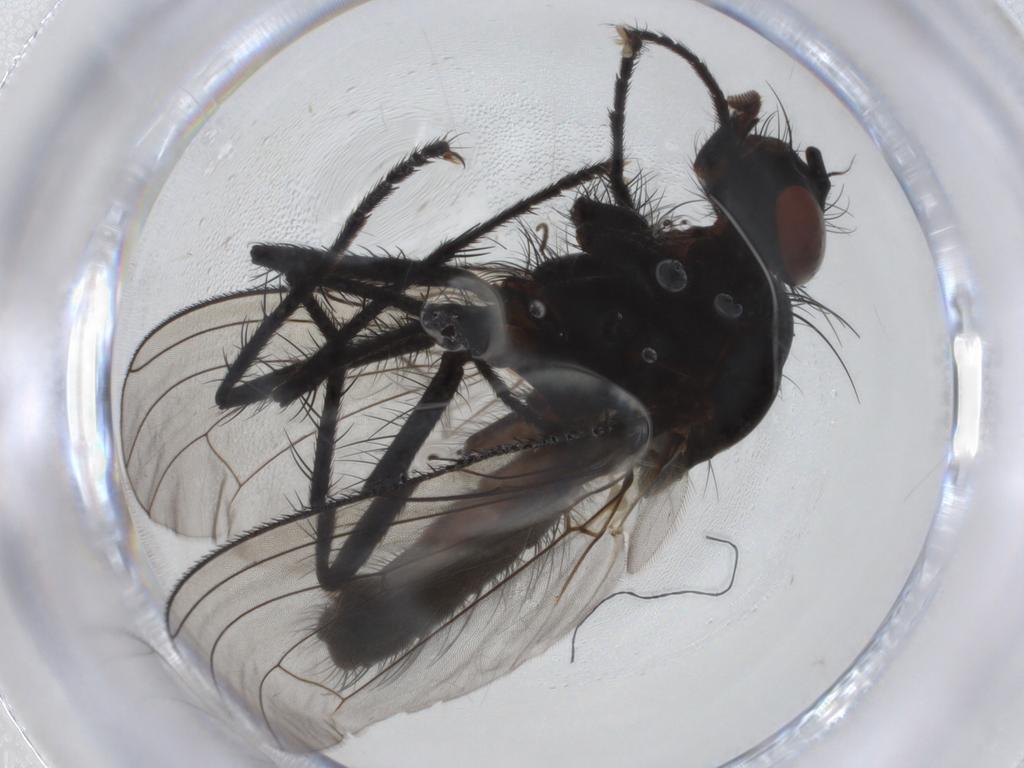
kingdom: Animalia
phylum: Arthropoda
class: Insecta
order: Diptera
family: Anthomyiidae
